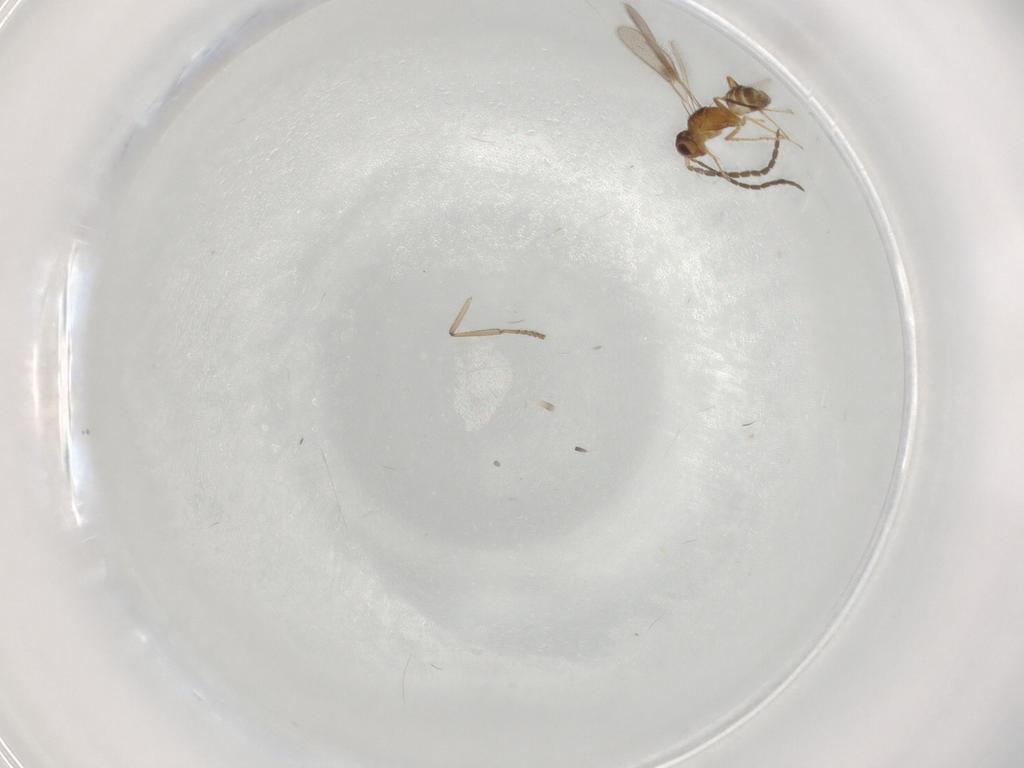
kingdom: Animalia
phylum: Arthropoda
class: Insecta
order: Hymenoptera
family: Mymaridae
